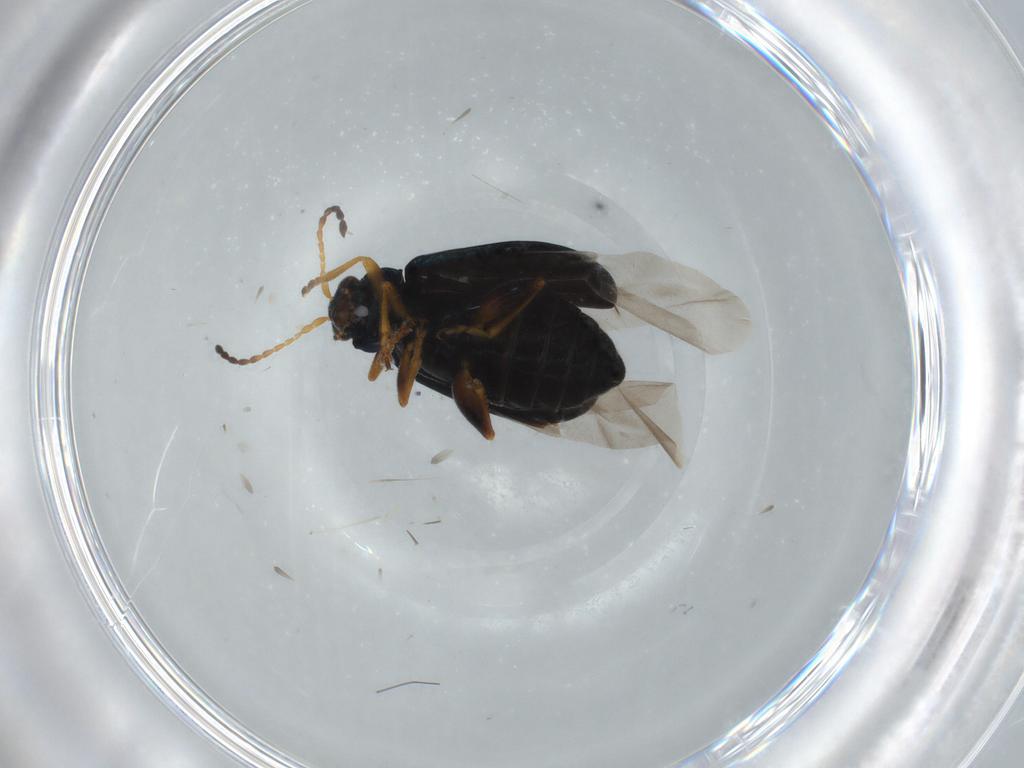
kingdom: Animalia
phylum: Arthropoda
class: Insecta
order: Coleoptera
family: Chrysomelidae
